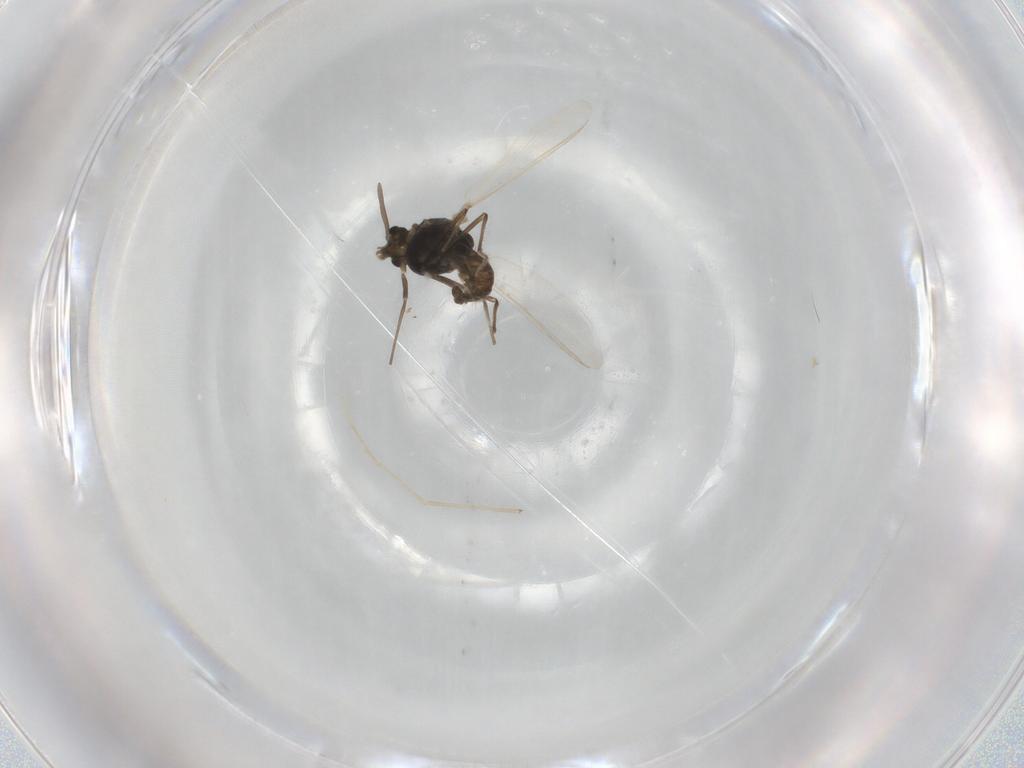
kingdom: Animalia
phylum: Arthropoda
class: Insecta
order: Diptera
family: Chironomidae
